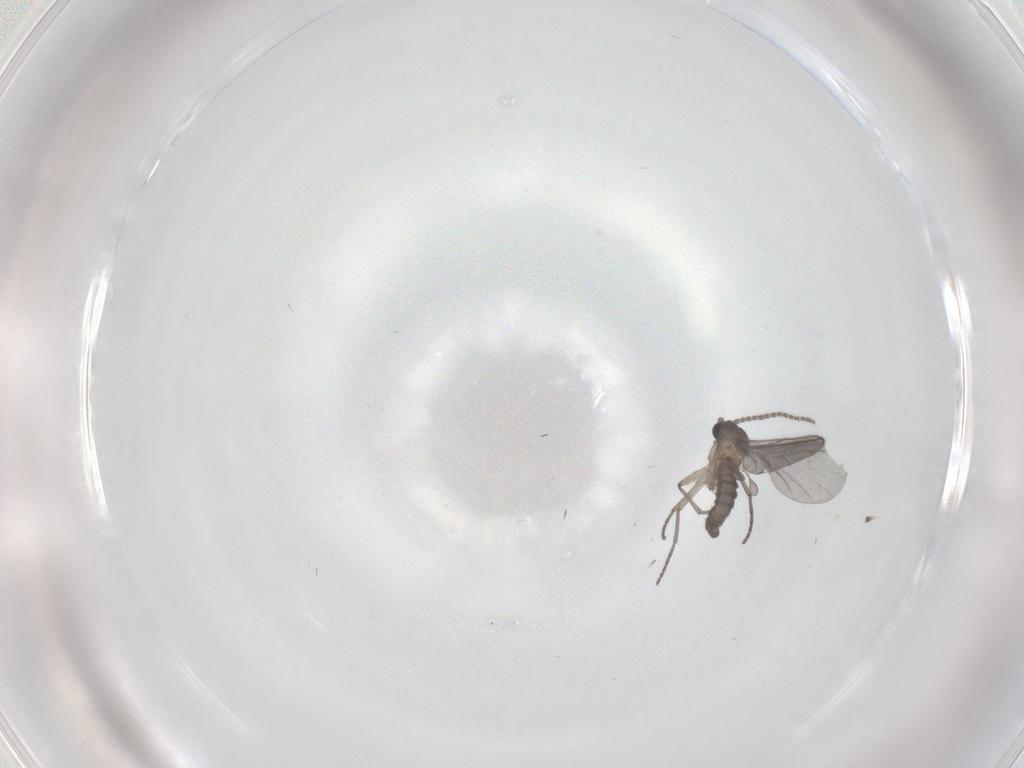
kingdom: Animalia
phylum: Arthropoda
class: Insecta
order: Diptera
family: Sciaridae
